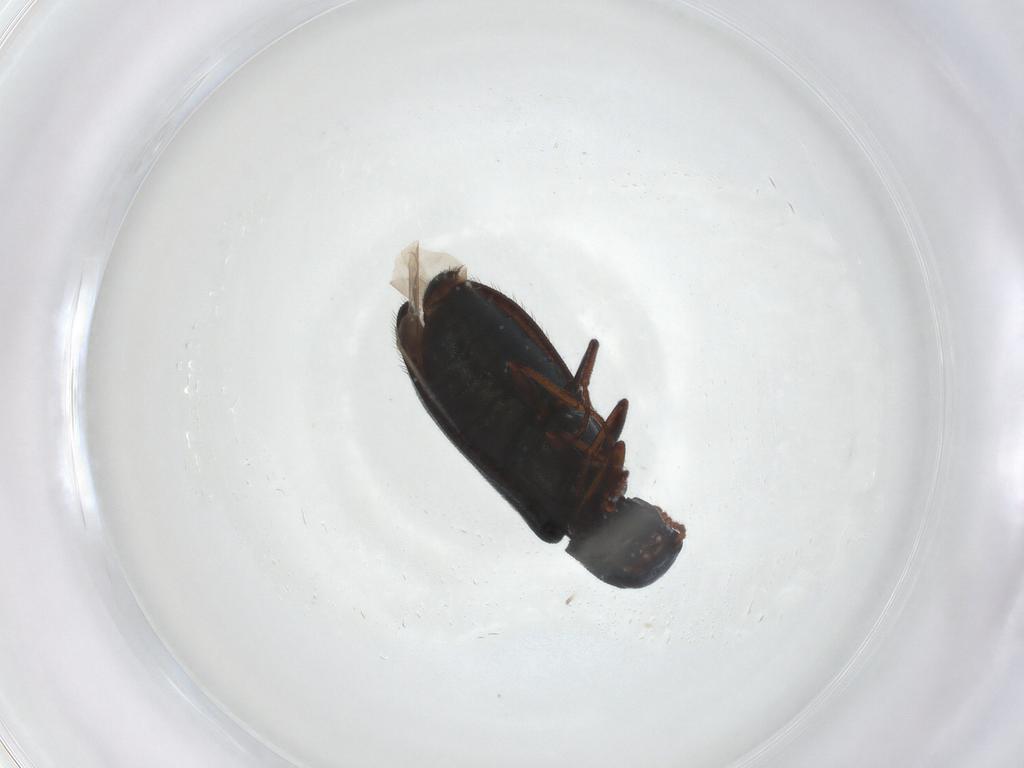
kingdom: Animalia
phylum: Arthropoda
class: Insecta
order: Coleoptera
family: Melyridae
